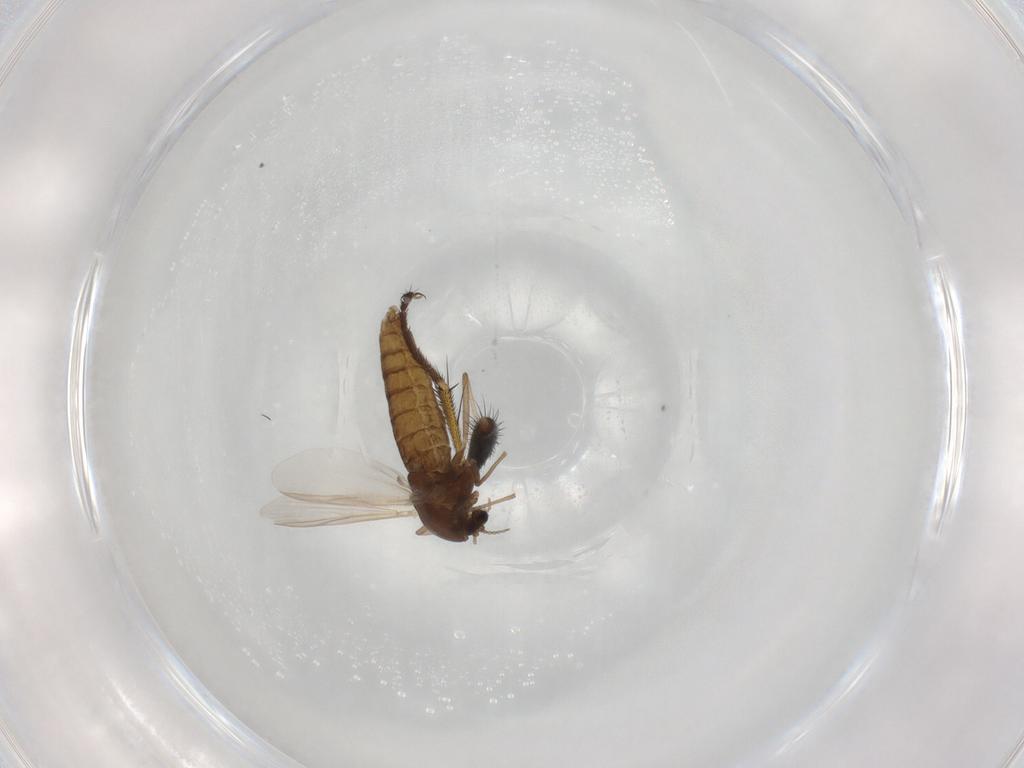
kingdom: Animalia
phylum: Arthropoda
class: Insecta
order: Diptera
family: Chironomidae
